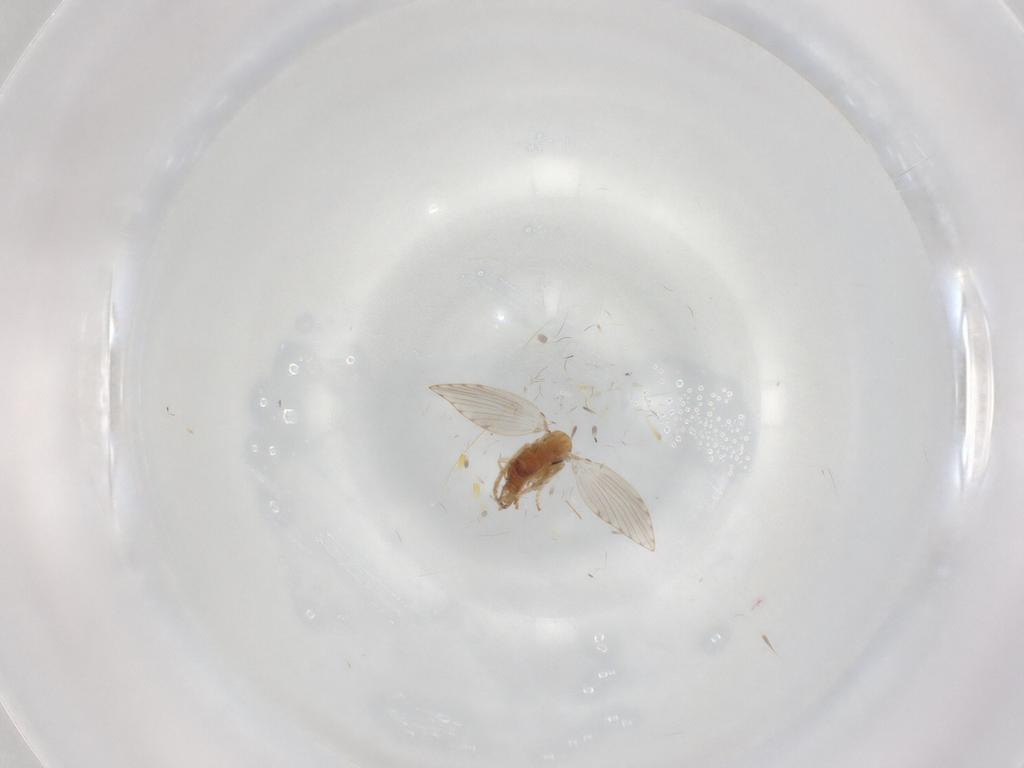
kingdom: Animalia
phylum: Arthropoda
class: Insecta
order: Diptera
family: Psychodidae
